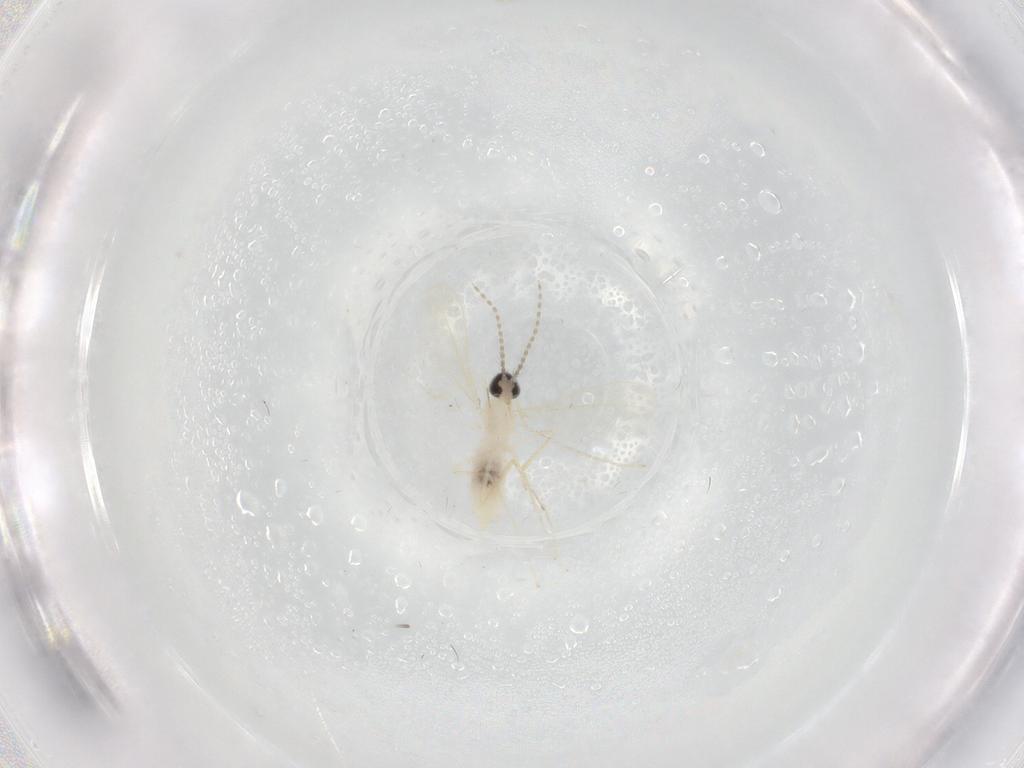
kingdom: Animalia
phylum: Arthropoda
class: Insecta
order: Diptera
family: Cecidomyiidae
